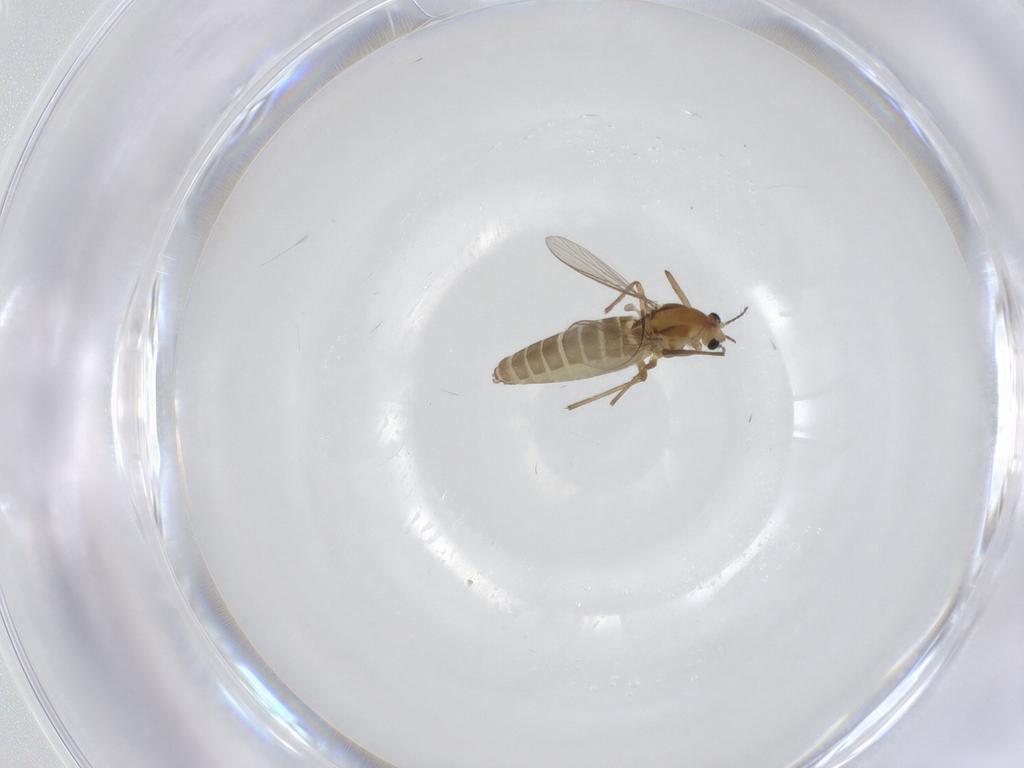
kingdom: Animalia
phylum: Arthropoda
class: Insecta
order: Diptera
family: Chironomidae
